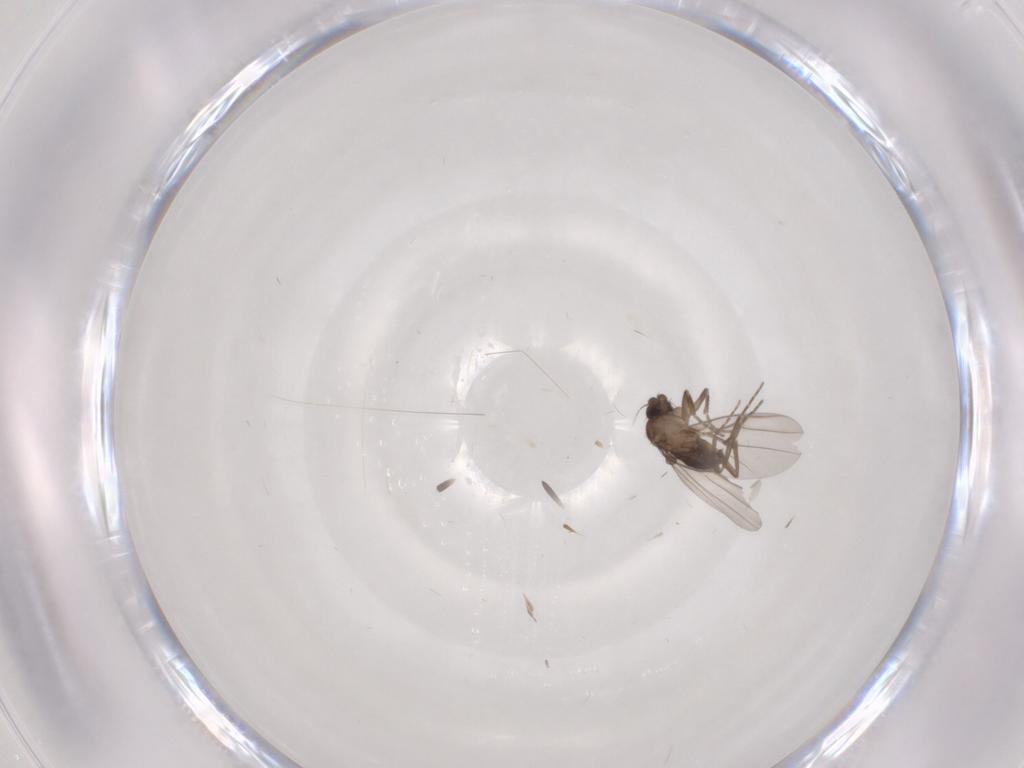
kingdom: Animalia
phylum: Arthropoda
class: Insecta
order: Diptera
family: Phoridae
